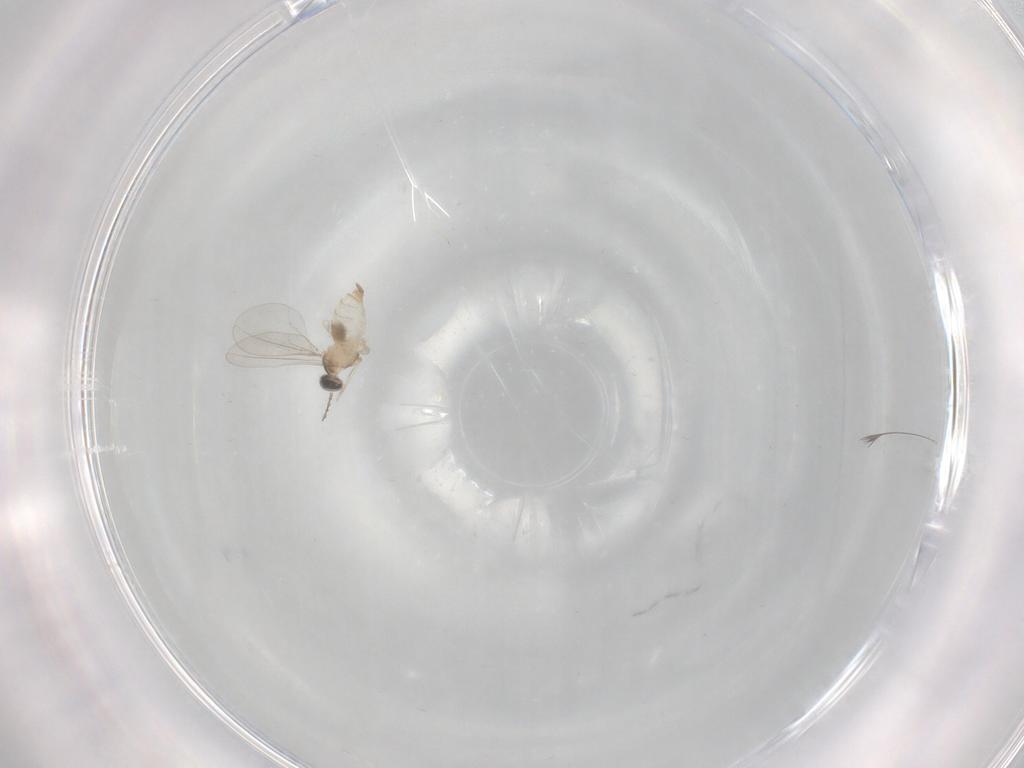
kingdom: Animalia
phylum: Arthropoda
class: Insecta
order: Diptera
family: Cecidomyiidae
